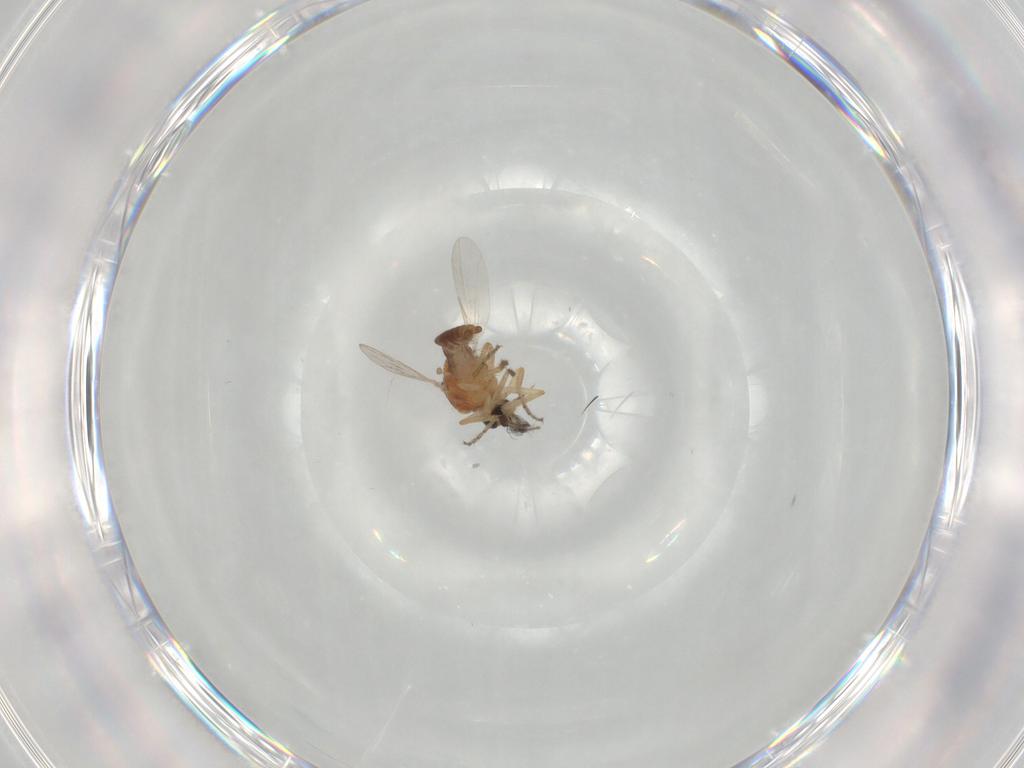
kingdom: Animalia
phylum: Arthropoda
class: Insecta
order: Diptera
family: Ceratopogonidae
